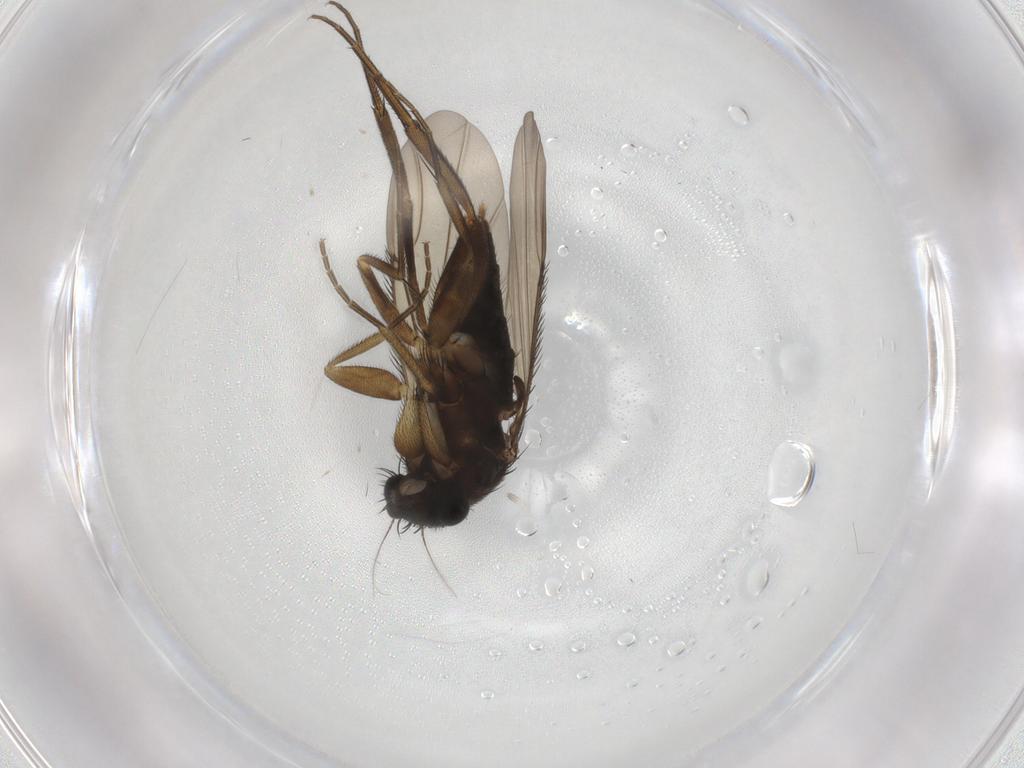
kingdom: Animalia
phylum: Arthropoda
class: Insecta
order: Diptera
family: Phoridae
